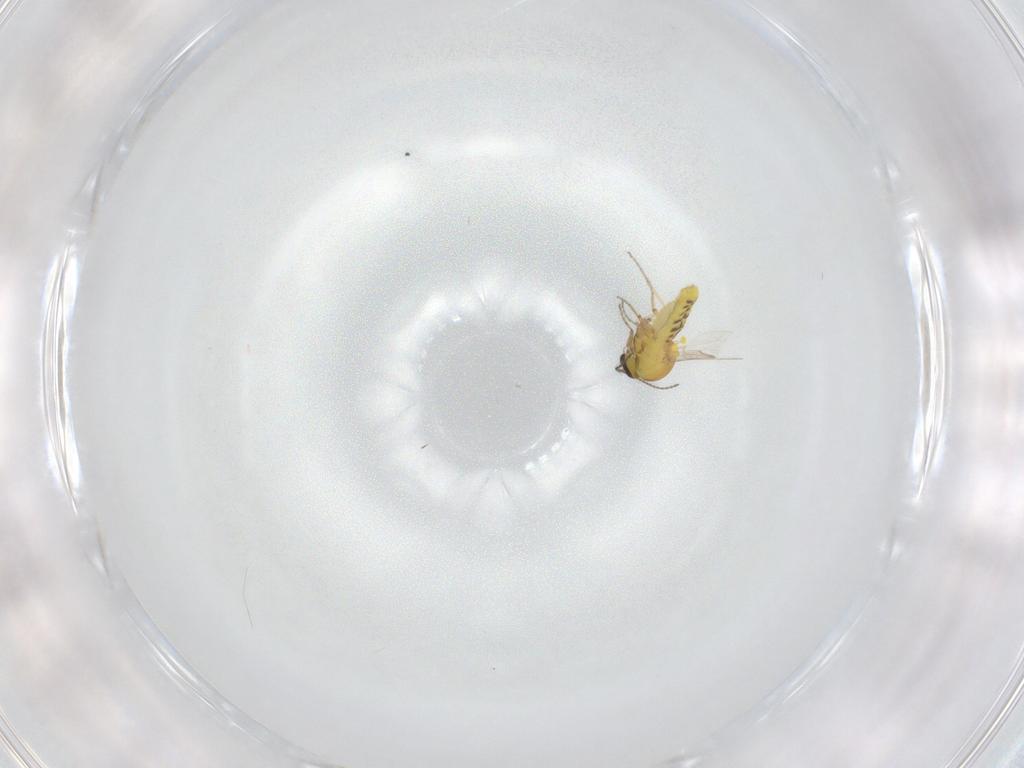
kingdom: Animalia
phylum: Arthropoda
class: Insecta
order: Diptera
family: Ceratopogonidae
